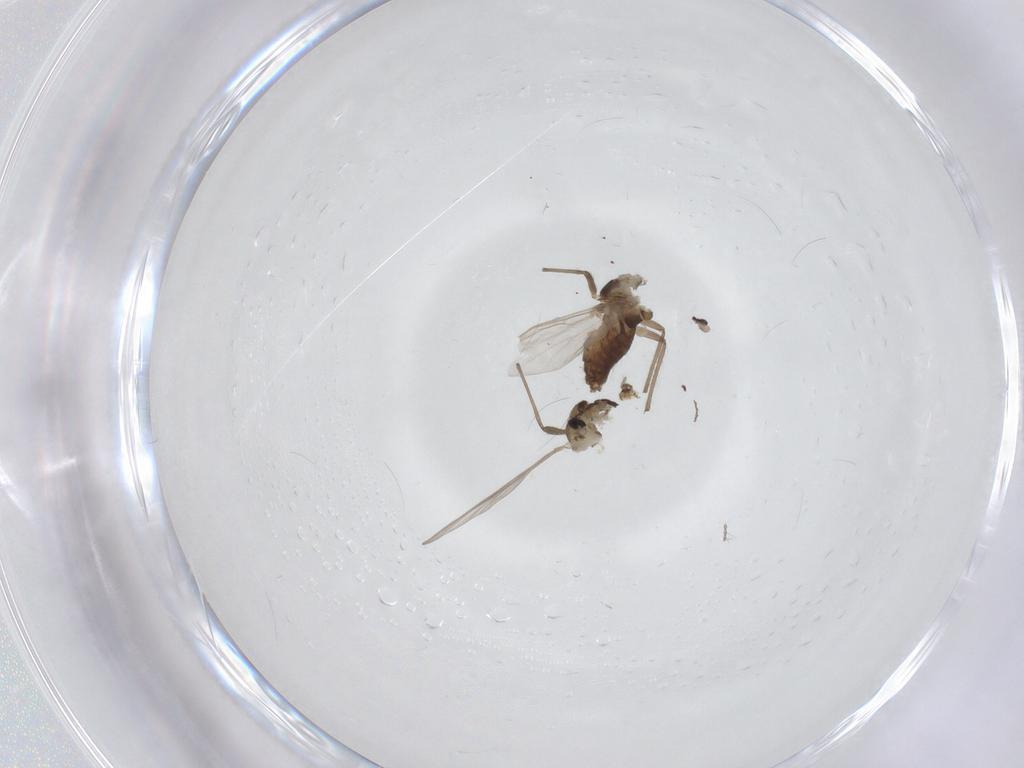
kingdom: Animalia
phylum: Arthropoda
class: Insecta
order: Diptera
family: Chironomidae
